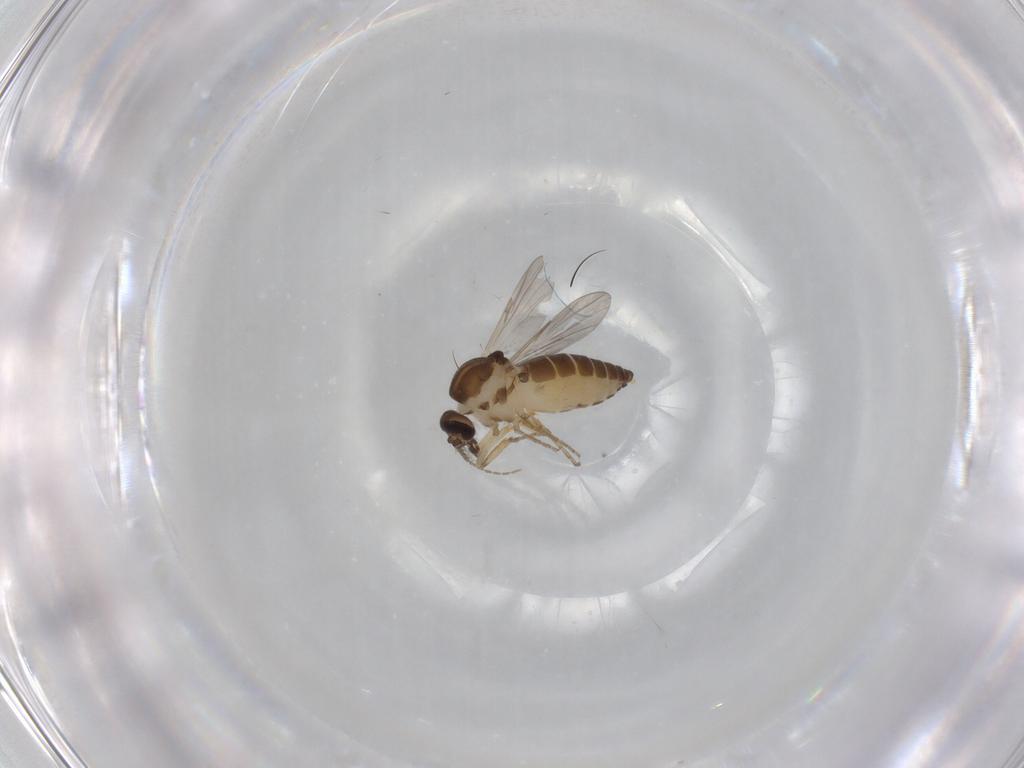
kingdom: Animalia
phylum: Arthropoda
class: Insecta
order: Diptera
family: Ceratopogonidae
